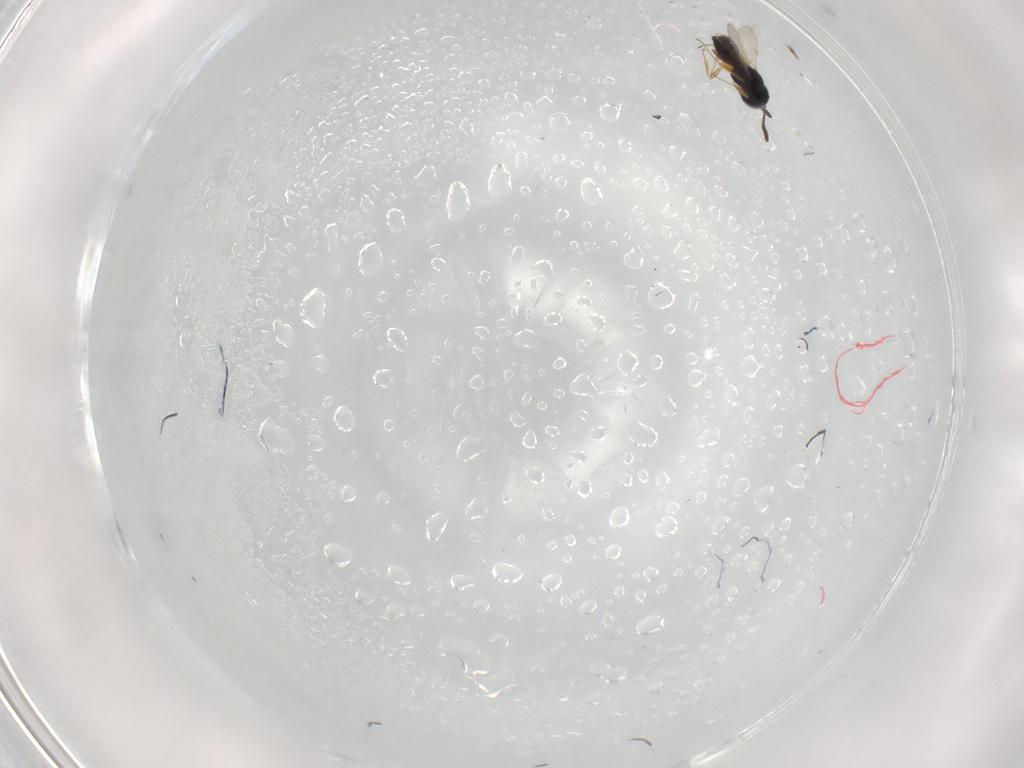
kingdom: Animalia
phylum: Arthropoda
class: Insecta
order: Hymenoptera
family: Scelionidae
